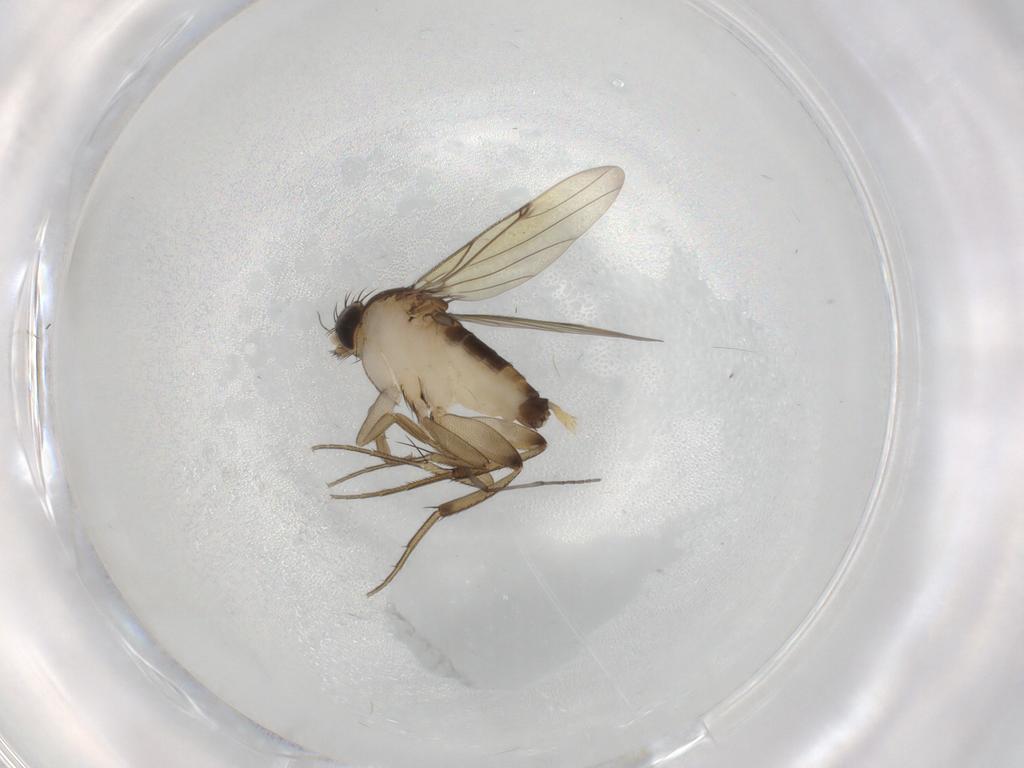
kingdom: Animalia
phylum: Arthropoda
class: Insecta
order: Diptera
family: Phoridae
